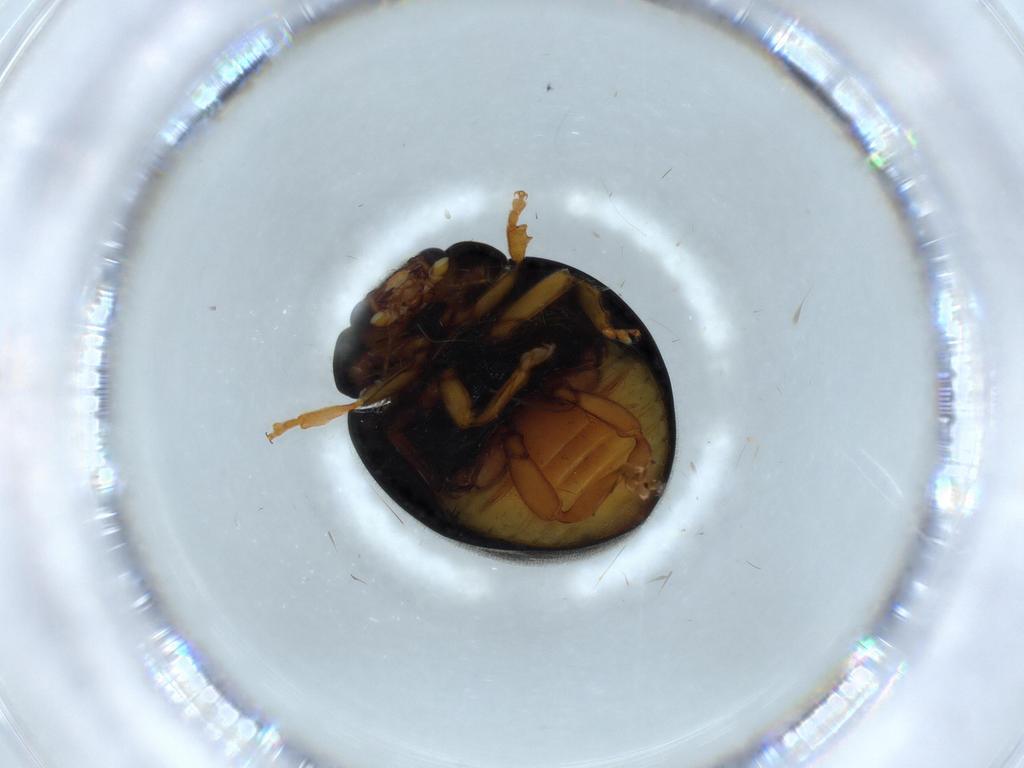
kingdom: Animalia
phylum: Arthropoda
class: Insecta
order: Coleoptera
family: Coccinellidae
